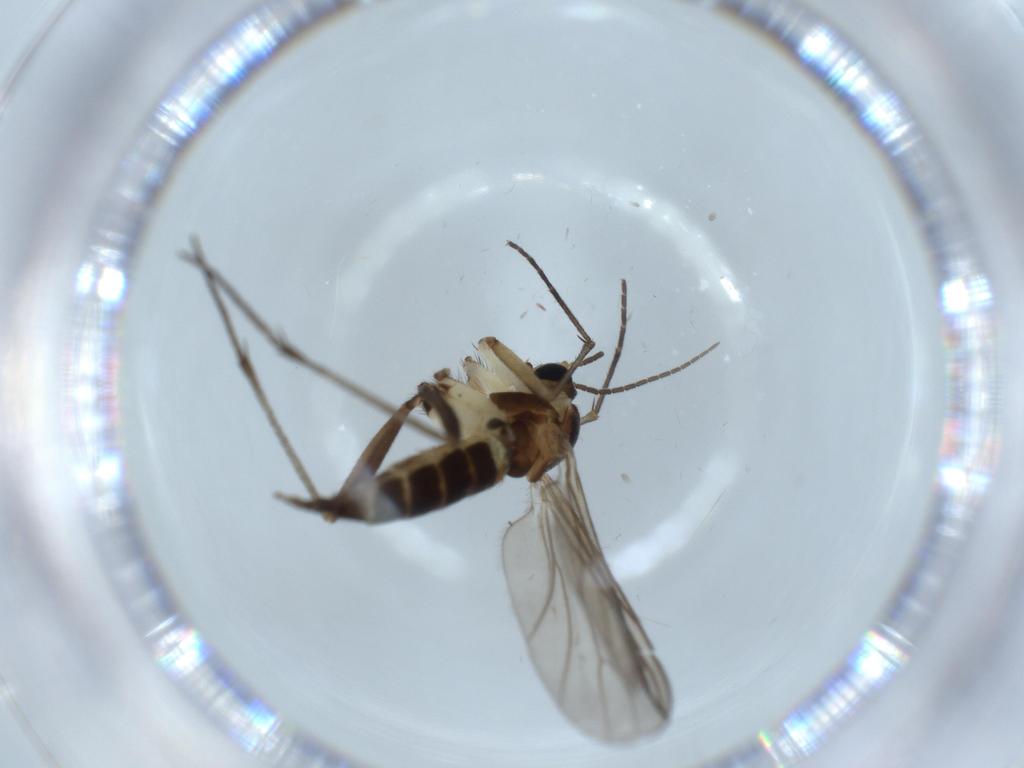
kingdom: Animalia
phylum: Arthropoda
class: Insecta
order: Diptera
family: Sciaridae
